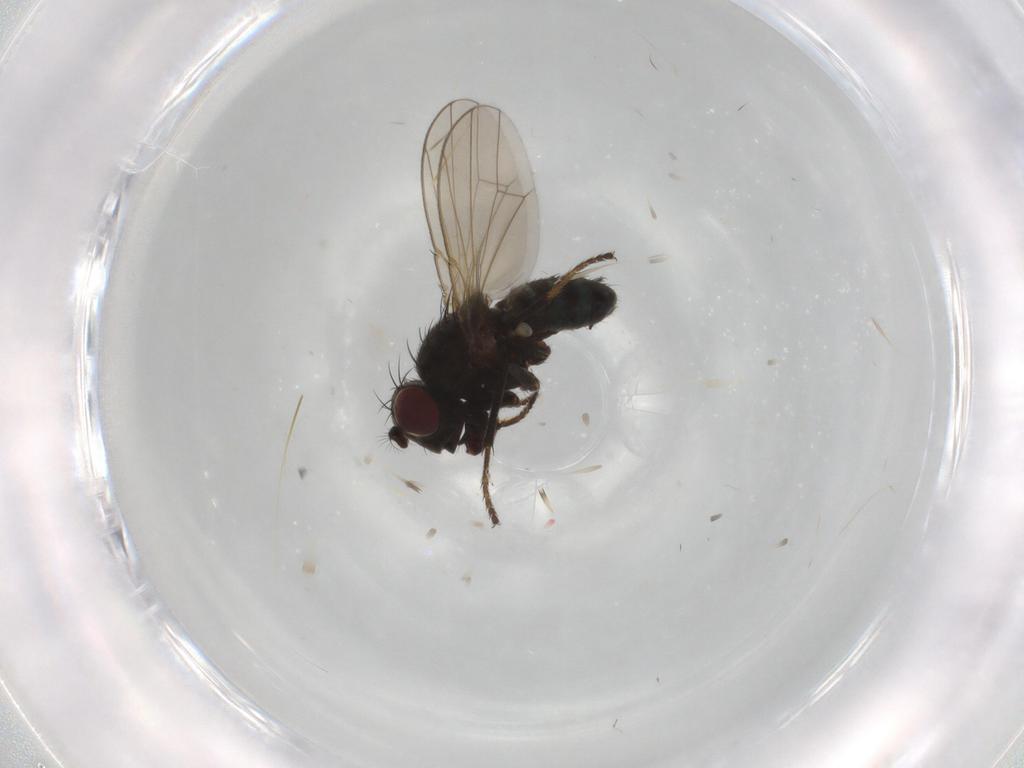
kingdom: Animalia
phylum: Arthropoda
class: Insecta
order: Diptera
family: Ephydridae
